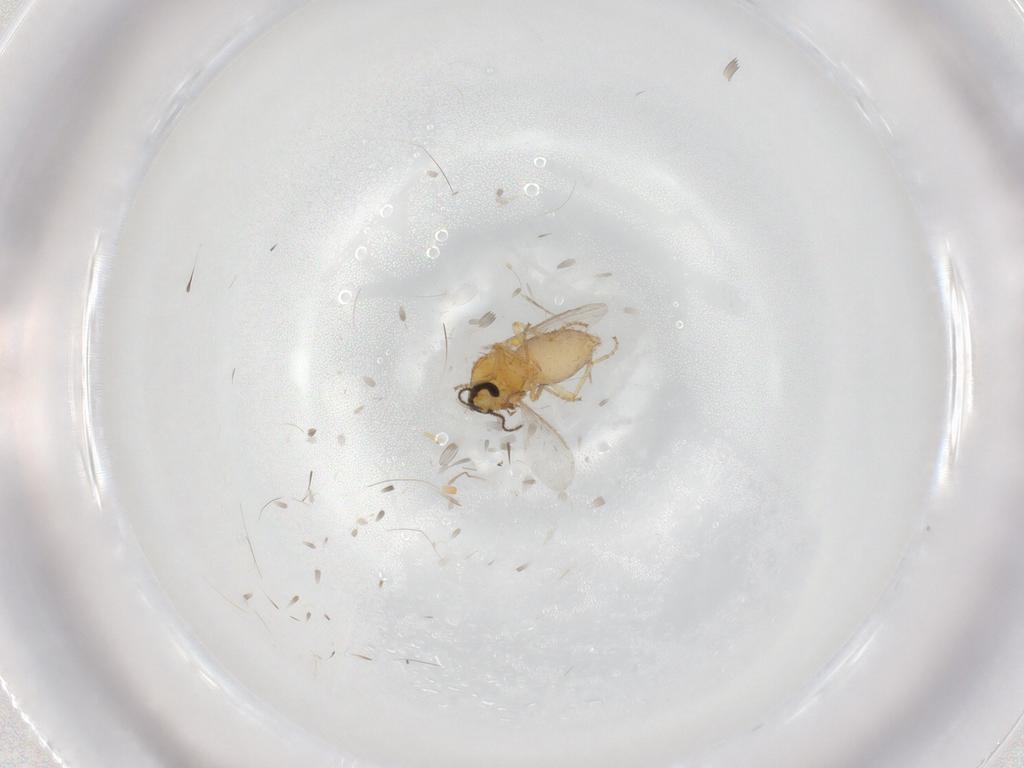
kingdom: Animalia
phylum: Arthropoda
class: Insecta
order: Diptera
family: Ceratopogonidae
